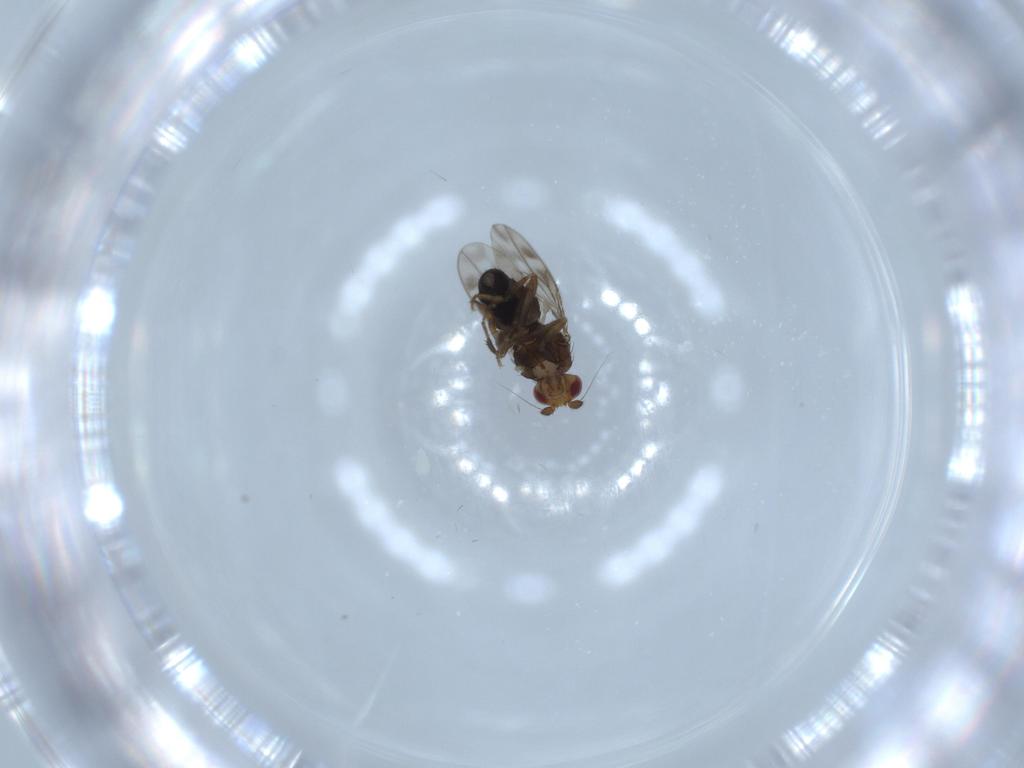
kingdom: Animalia
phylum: Arthropoda
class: Insecta
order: Diptera
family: Sphaeroceridae
